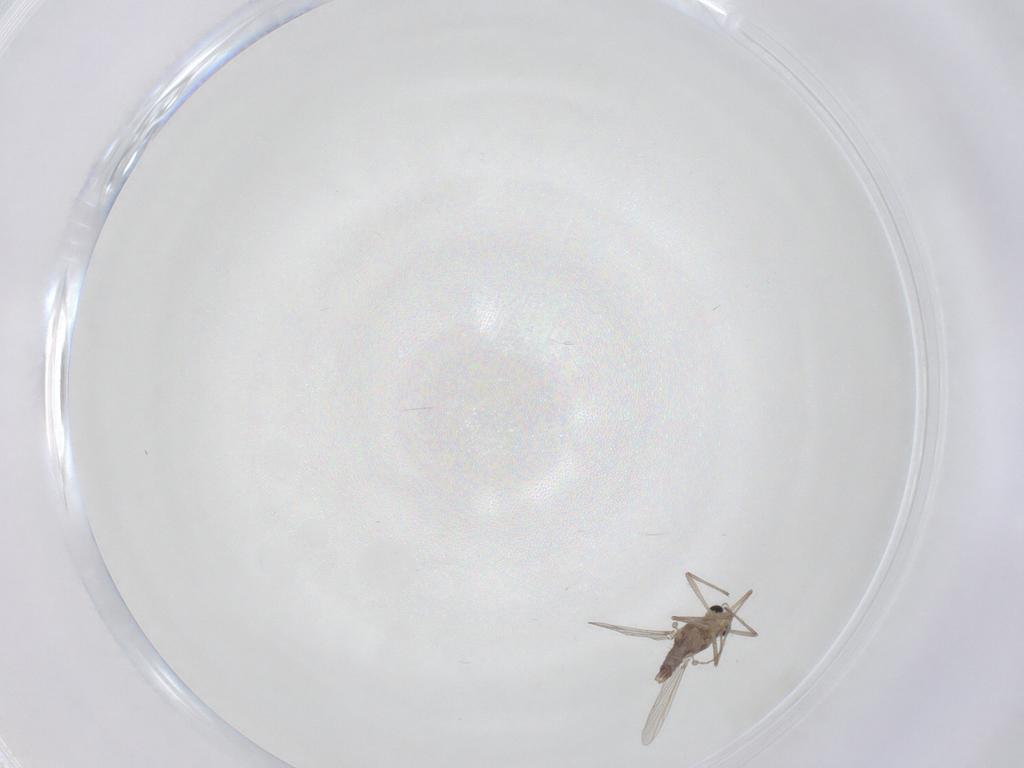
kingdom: Animalia
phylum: Arthropoda
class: Insecta
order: Diptera
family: Chironomidae
